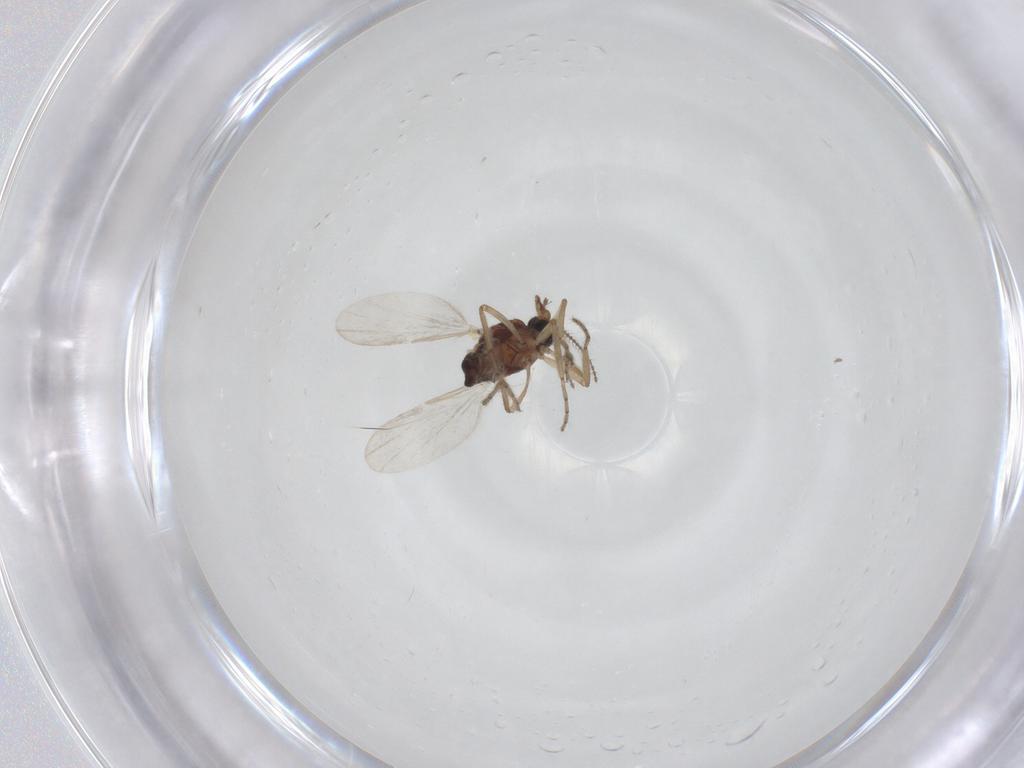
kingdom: Animalia
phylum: Arthropoda
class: Insecta
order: Diptera
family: Ceratopogonidae
